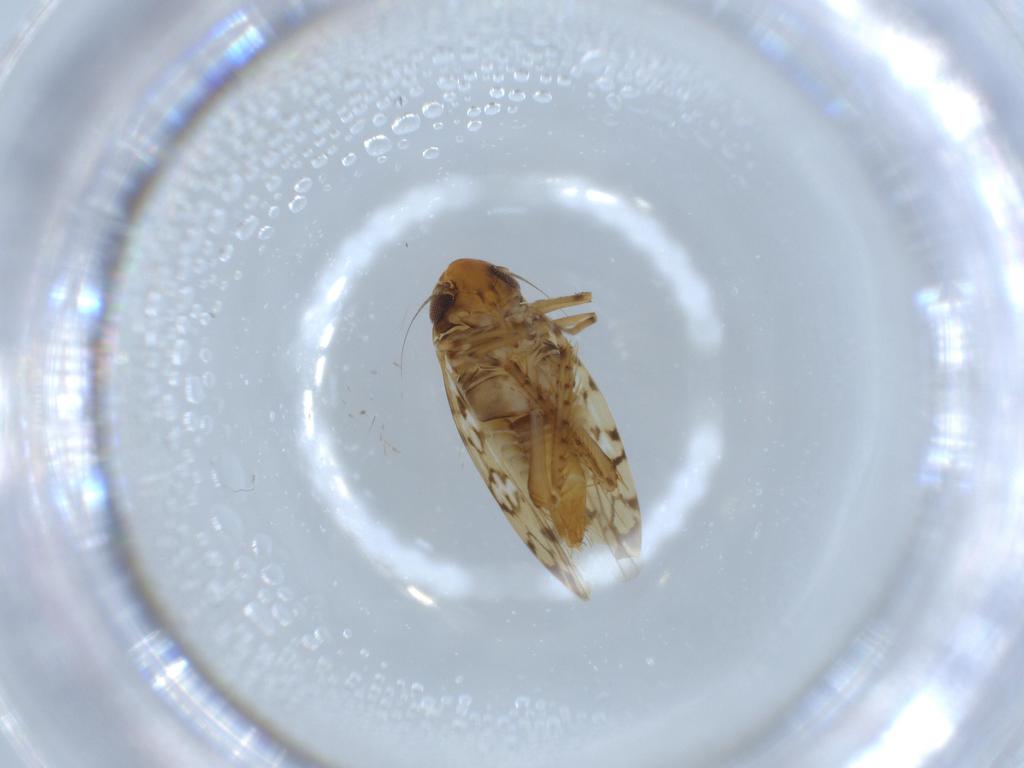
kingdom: Animalia
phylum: Arthropoda
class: Insecta
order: Hemiptera
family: Cicadellidae
